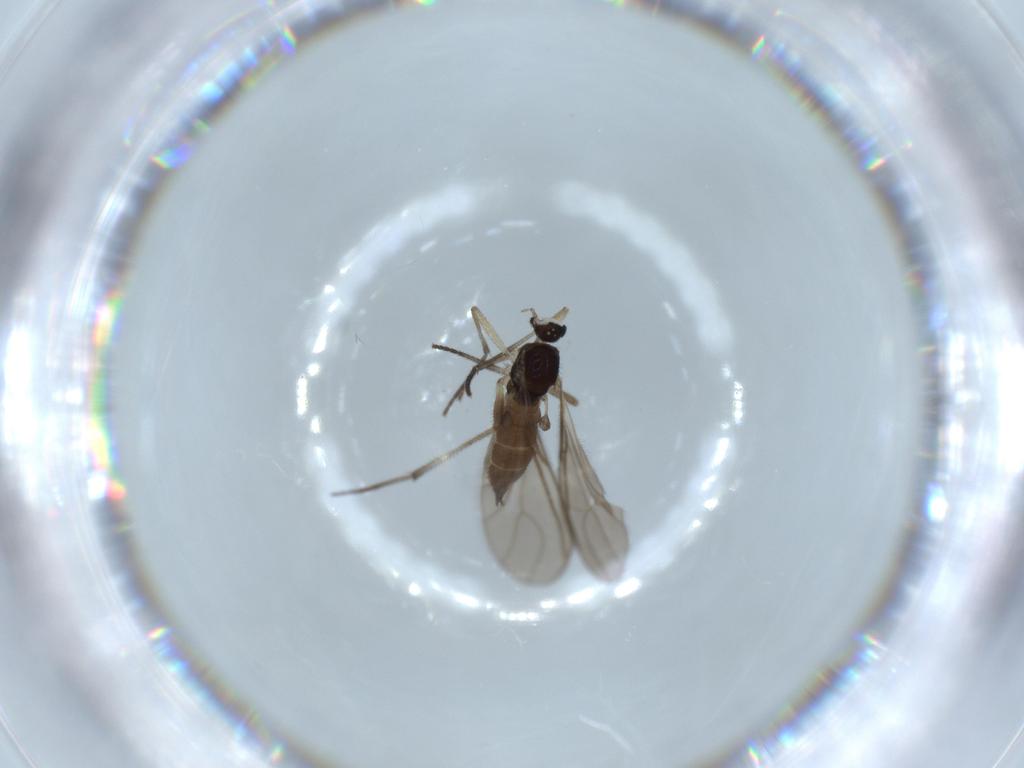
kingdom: Animalia
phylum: Arthropoda
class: Insecta
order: Diptera
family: Sciaridae
